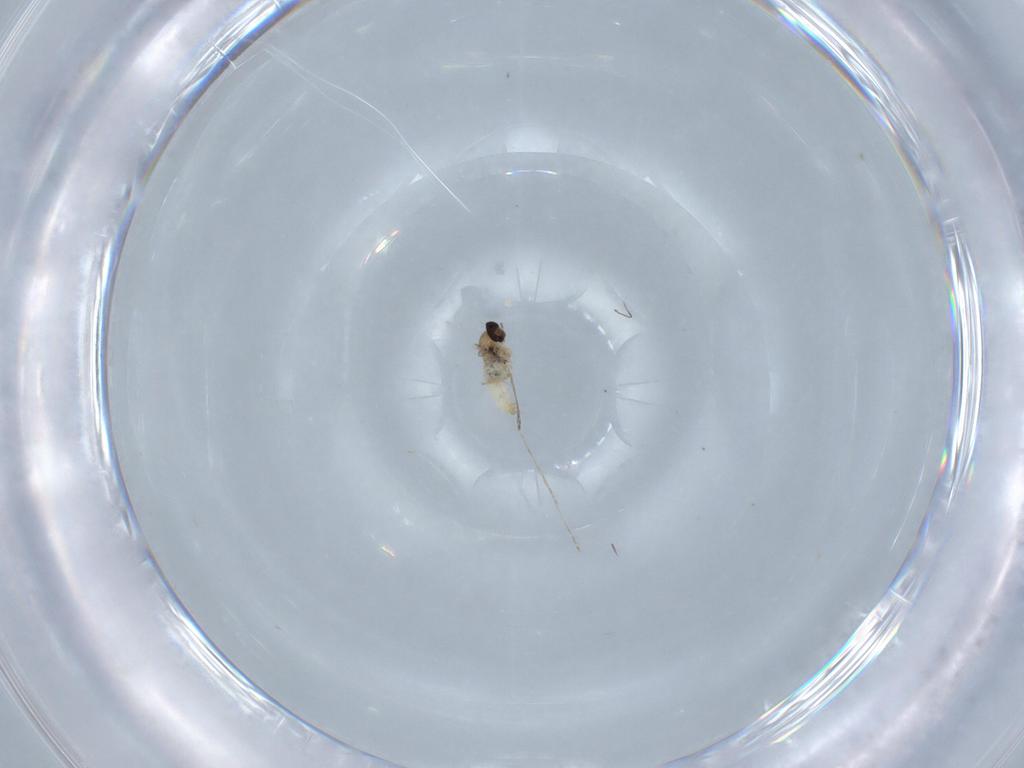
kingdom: Animalia
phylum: Arthropoda
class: Insecta
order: Diptera
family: Cecidomyiidae
